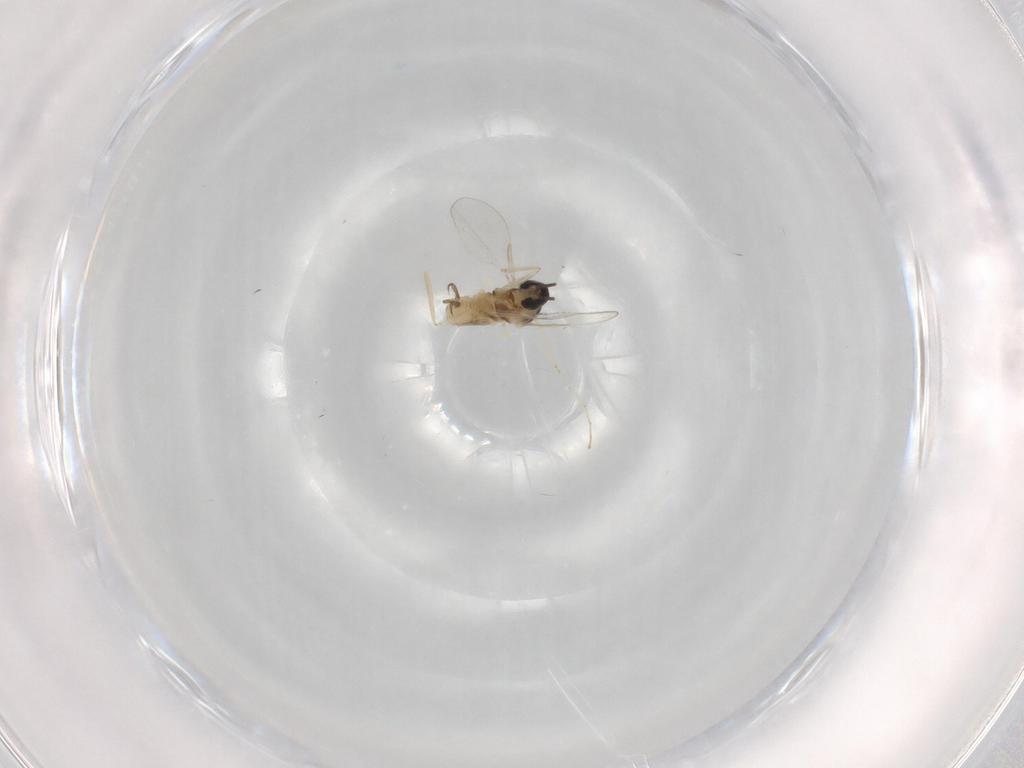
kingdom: Animalia
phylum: Arthropoda
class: Insecta
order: Diptera
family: Cecidomyiidae
